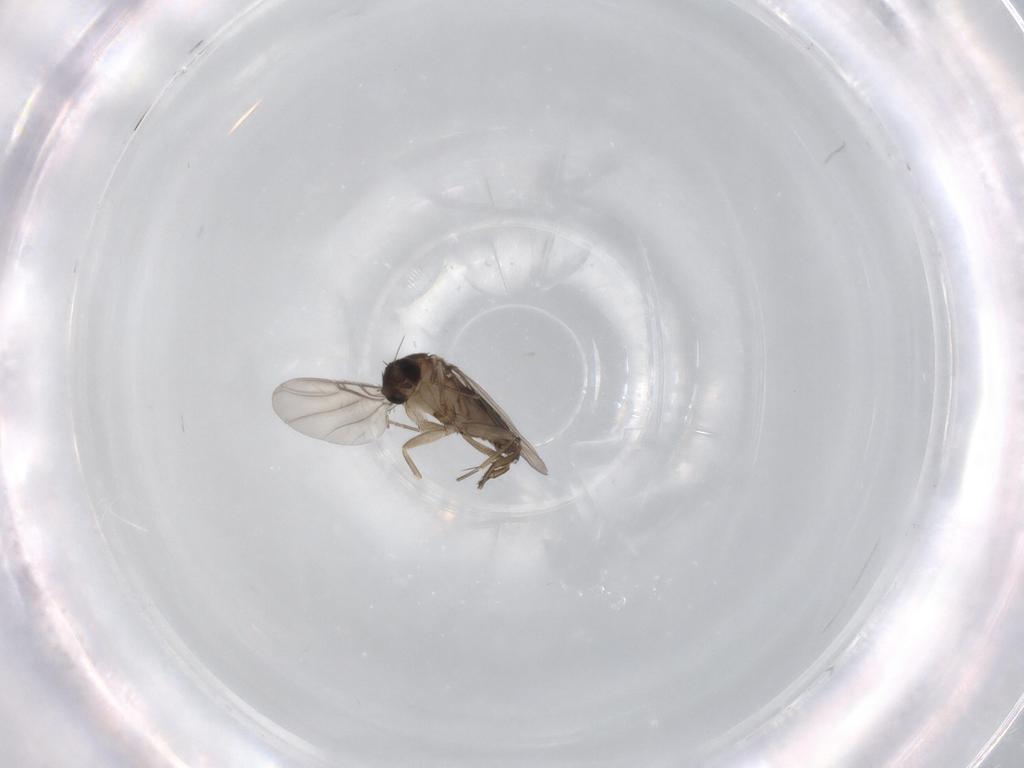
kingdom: Animalia
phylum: Arthropoda
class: Insecta
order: Diptera
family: Phoridae
